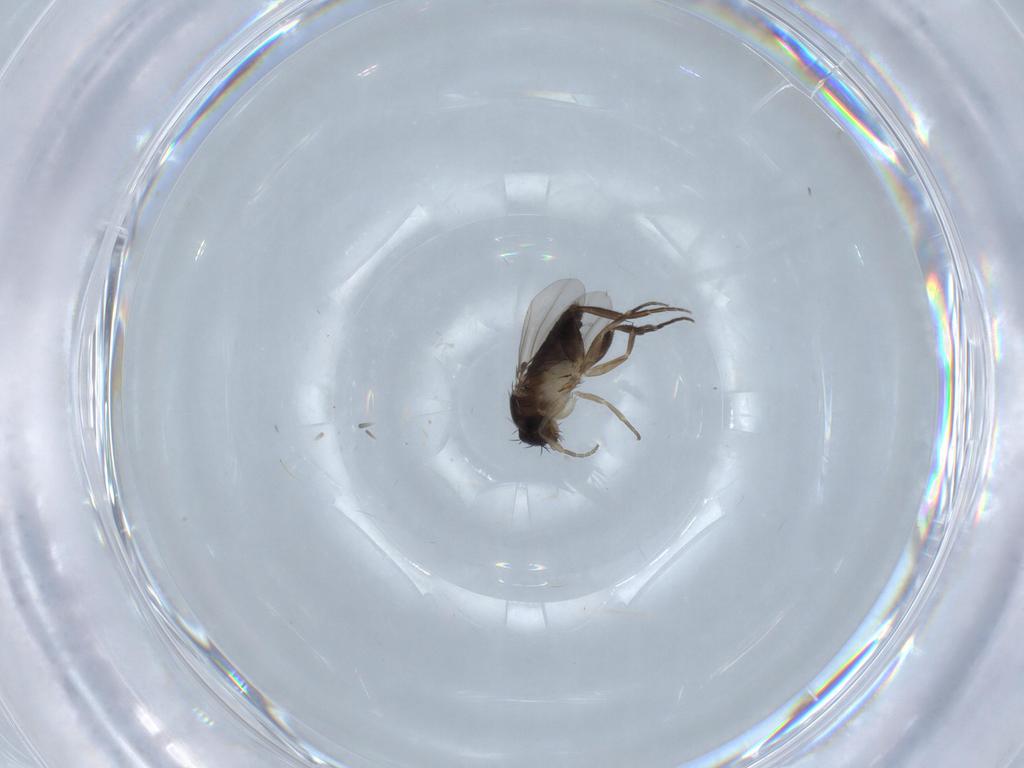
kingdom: Animalia
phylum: Arthropoda
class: Insecta
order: Diptera
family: Phoridae
